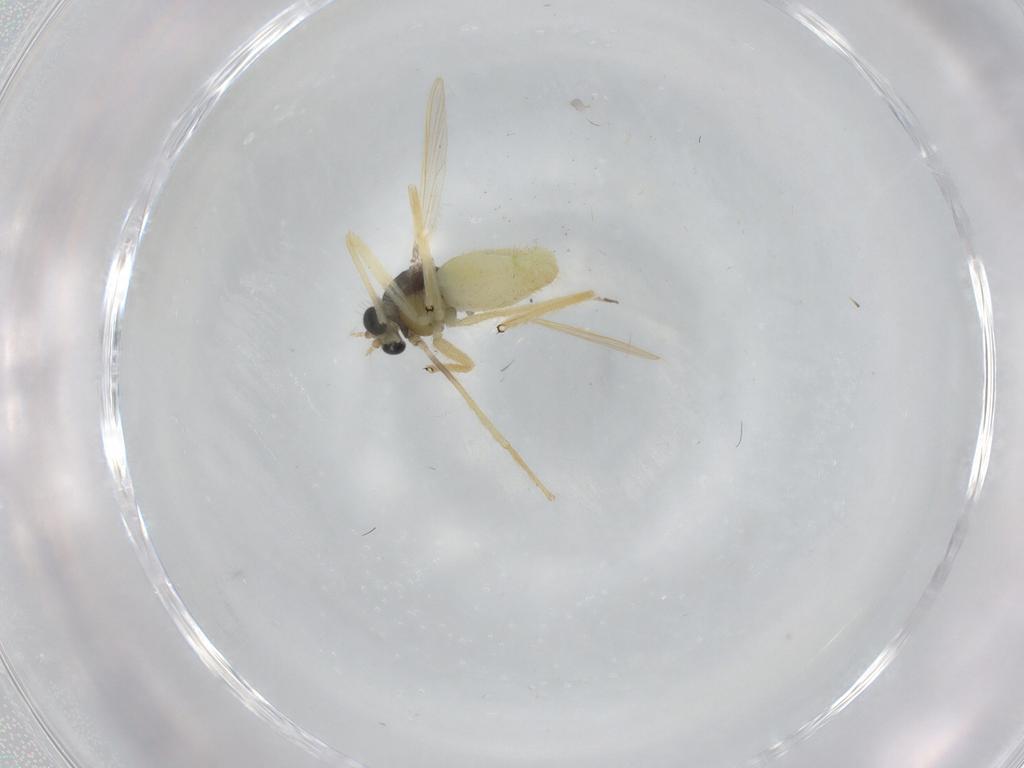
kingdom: Animalia
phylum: Arthropoda
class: Insecta
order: Diptera
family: Chironomidae
